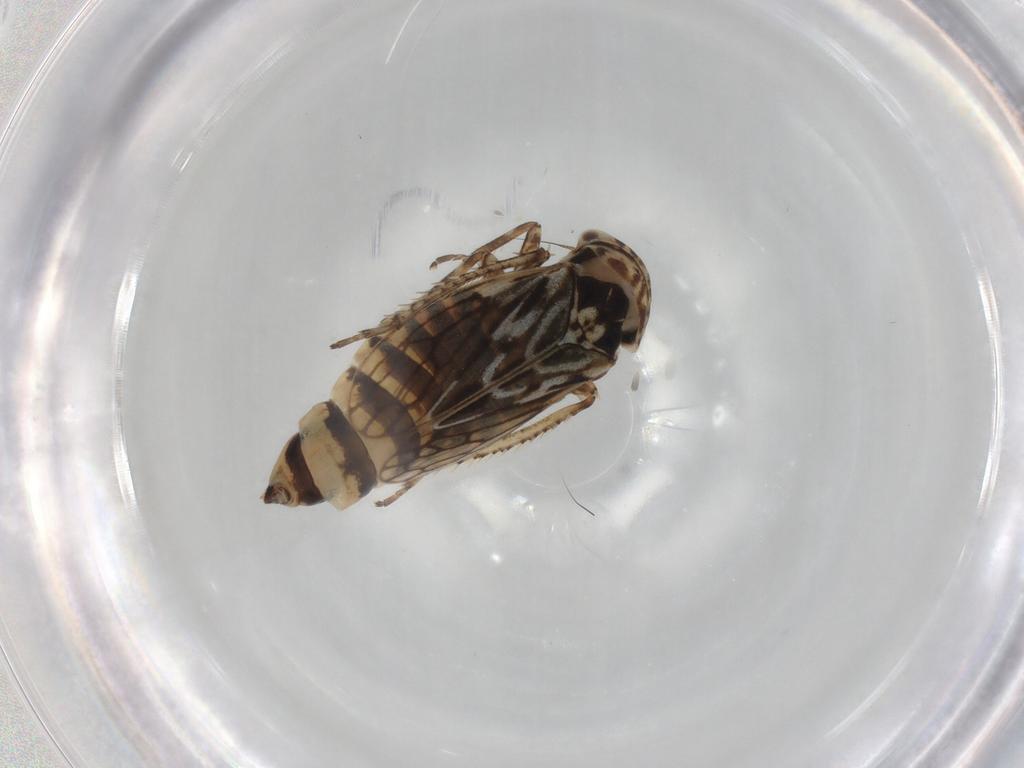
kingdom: Animalia
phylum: Arthropoda
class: Insecta
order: Hemiptera
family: Cicadellidae
